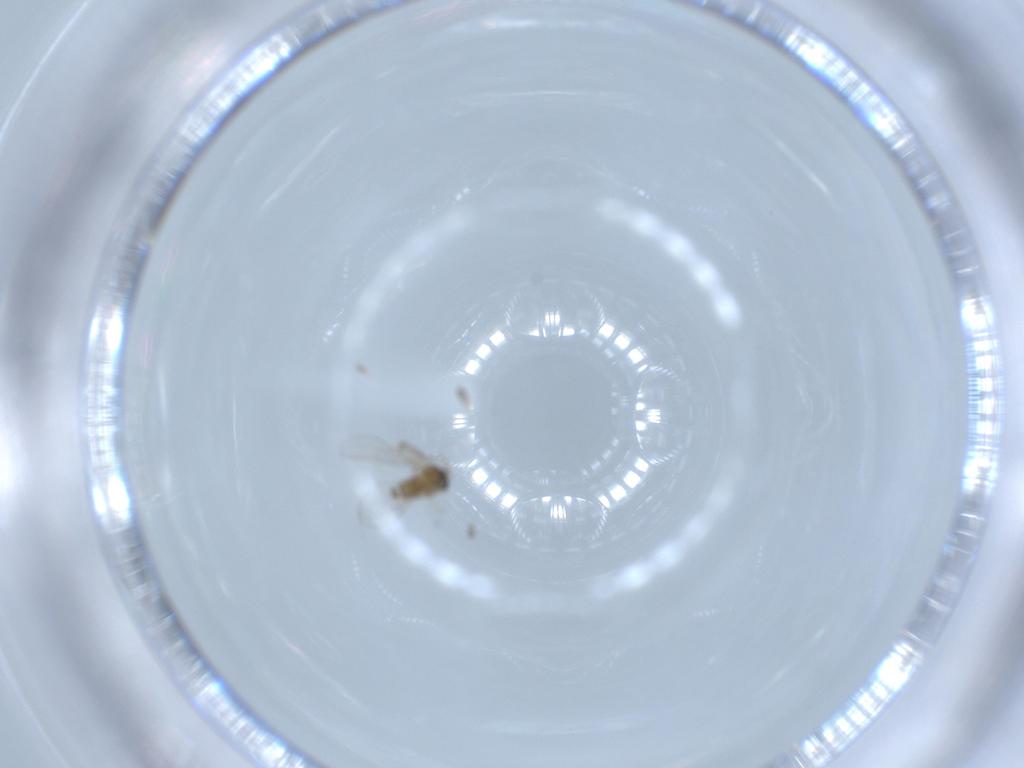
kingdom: Animalia
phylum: Arthropoda
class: Insecta
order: Diptera
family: Cecidomyiidae
